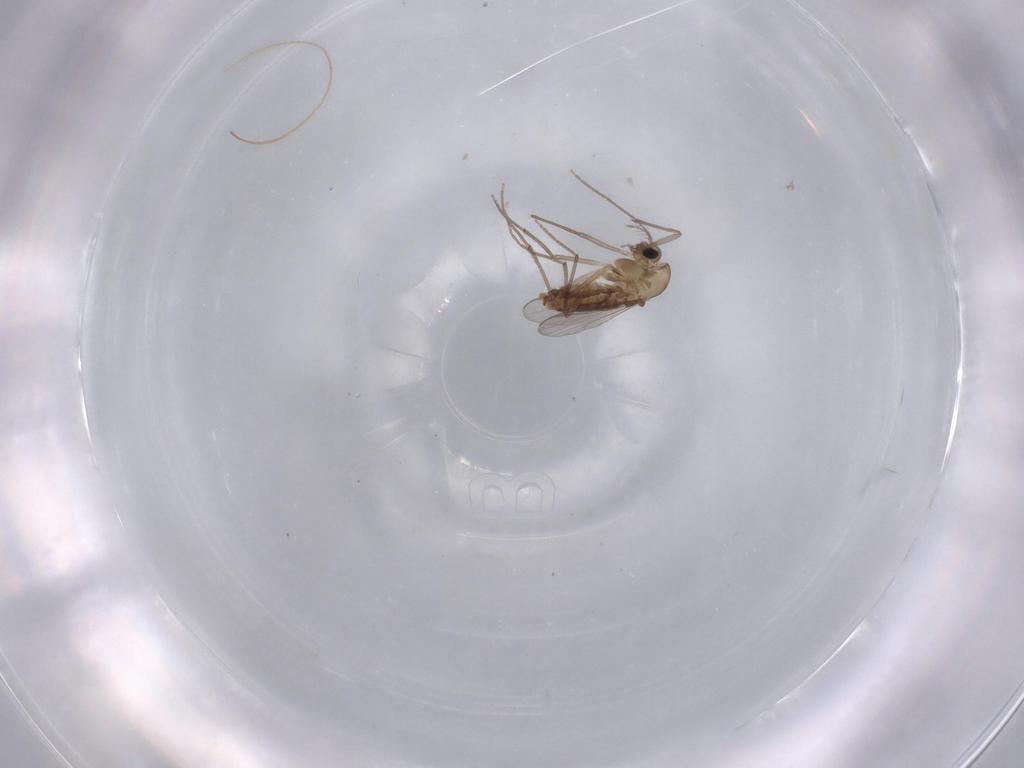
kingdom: Animalia
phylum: Arthropoda
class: Insecta
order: Diptera
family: Chironomidae
